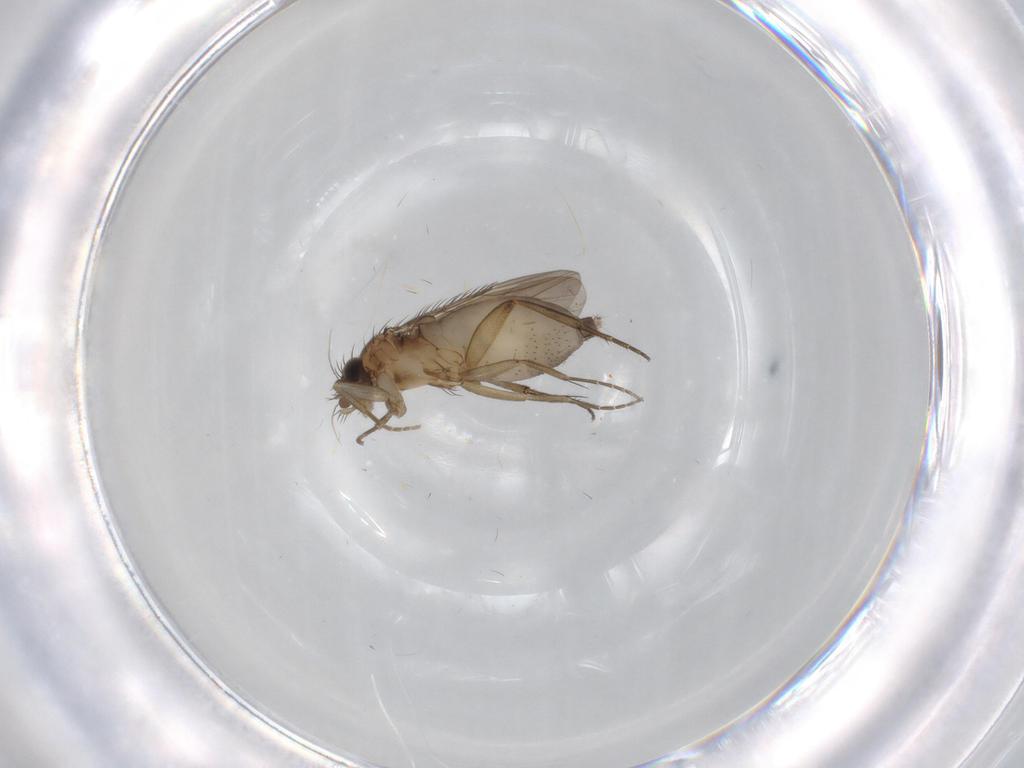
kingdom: Animalia
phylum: Arthropoda
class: Insecta
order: Diptera
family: Phoridae
